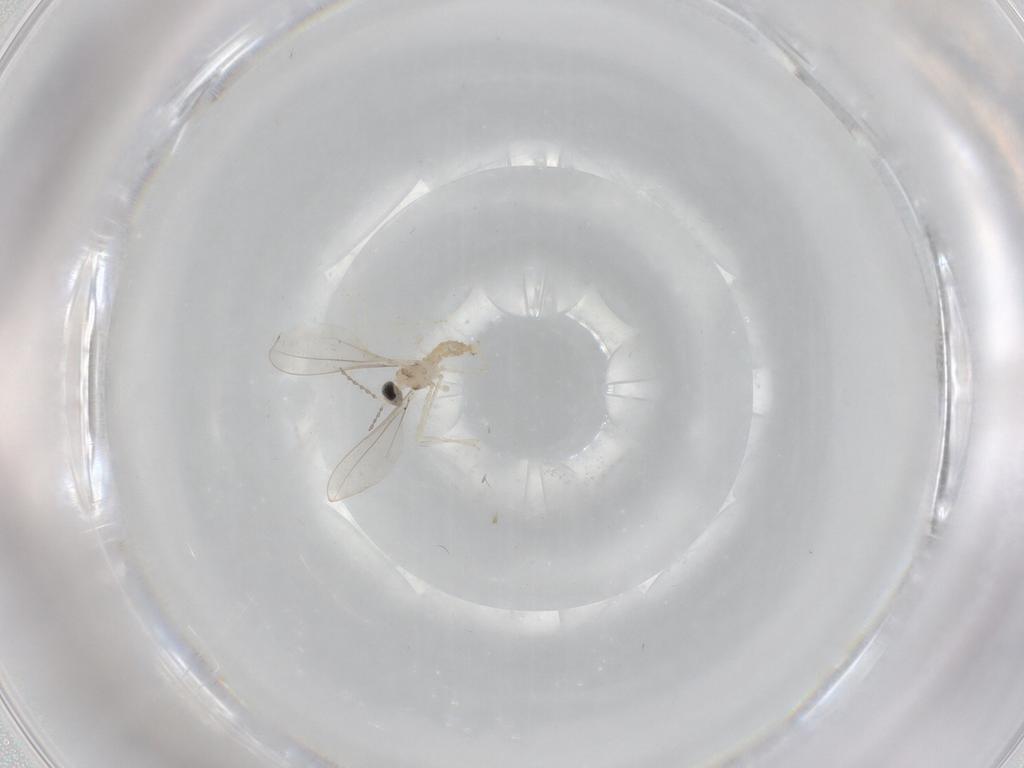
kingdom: Animalia
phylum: Arthropoda
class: Insecta
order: Diptera
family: Cecidomyiidae
